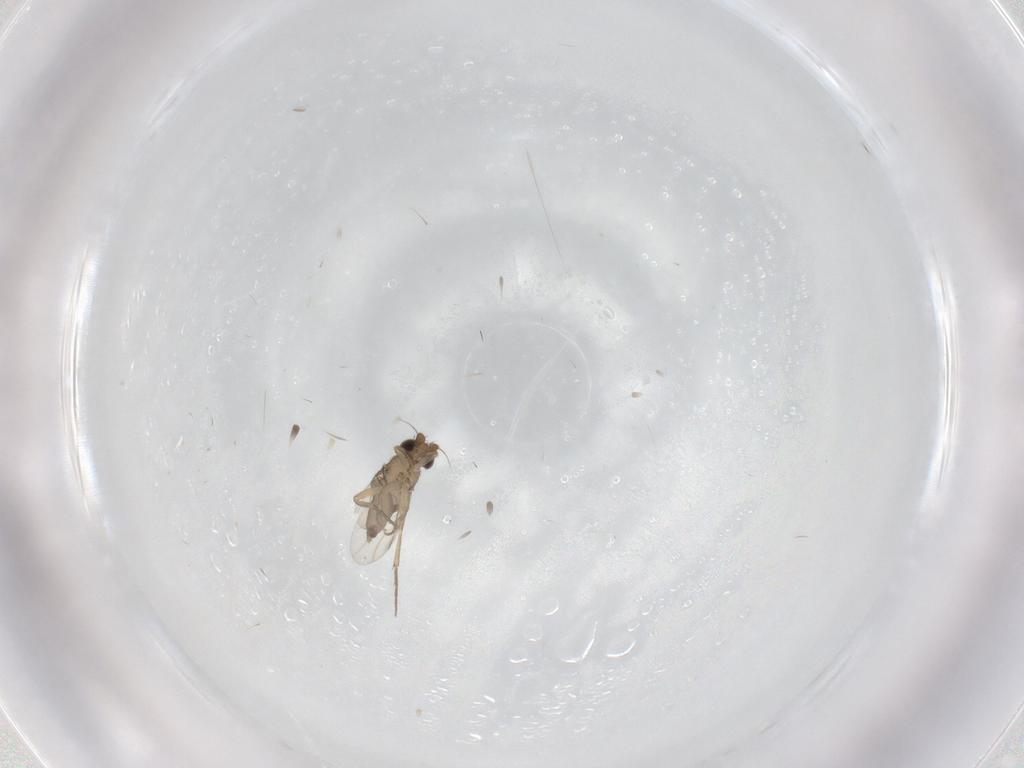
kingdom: Animalia
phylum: Arthropoda
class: Insecta
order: Diptera
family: Phoridae
